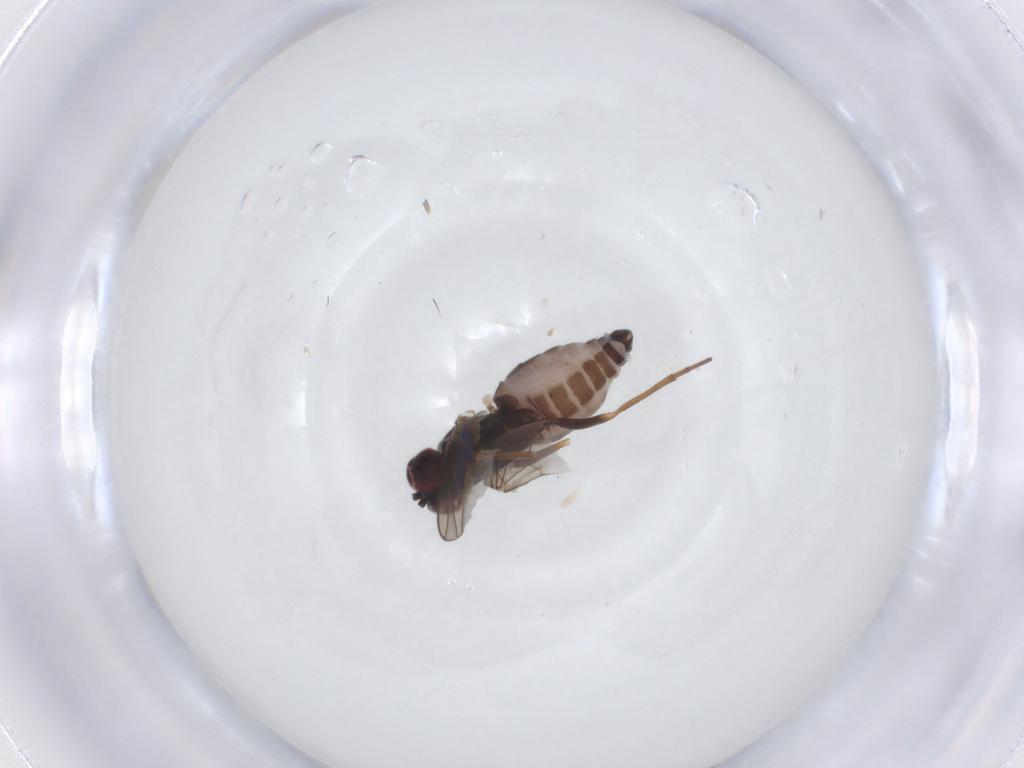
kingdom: Animalia
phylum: Arthropoda
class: Insecta
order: Diptera
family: Dolichopodidae
